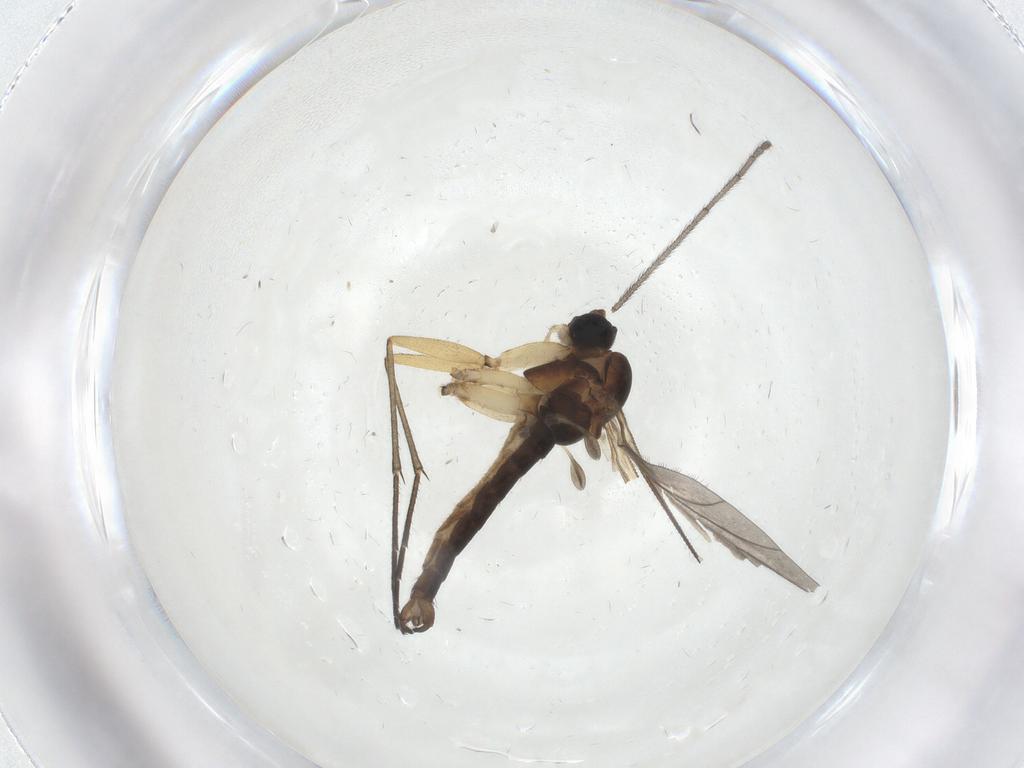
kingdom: Animalia
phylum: Arthropoda
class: Insecta
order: Diptera
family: Sciaridae
